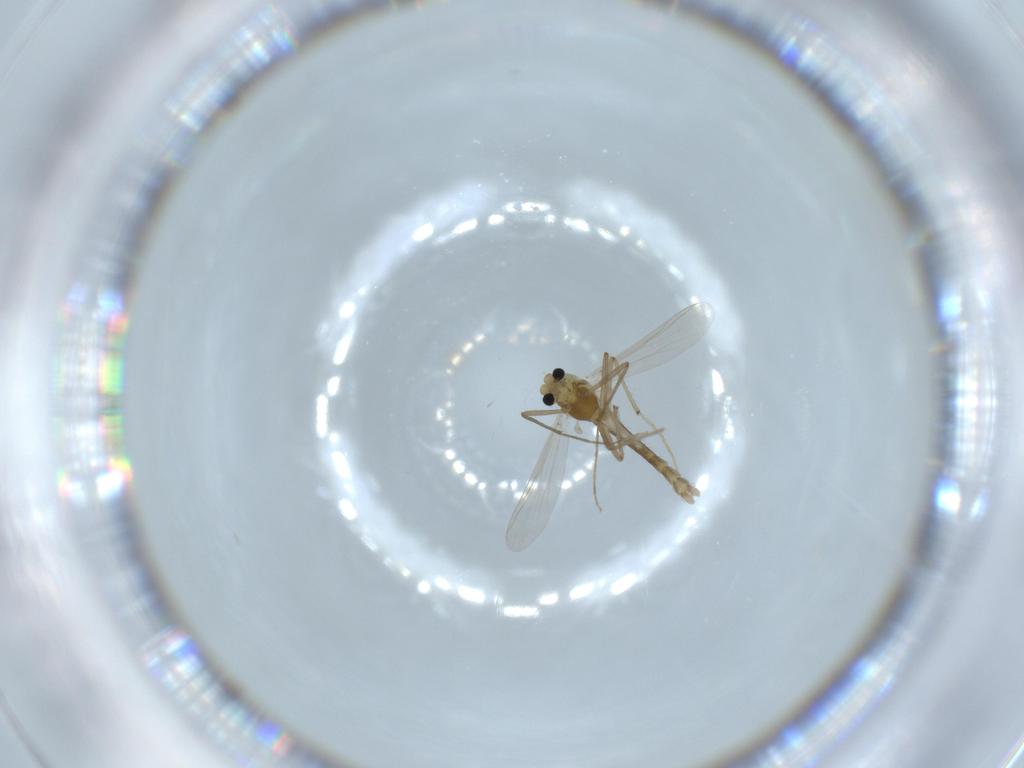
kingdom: Animalia
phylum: Arthropoda
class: Insecta
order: Diptera
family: Chironomidae
